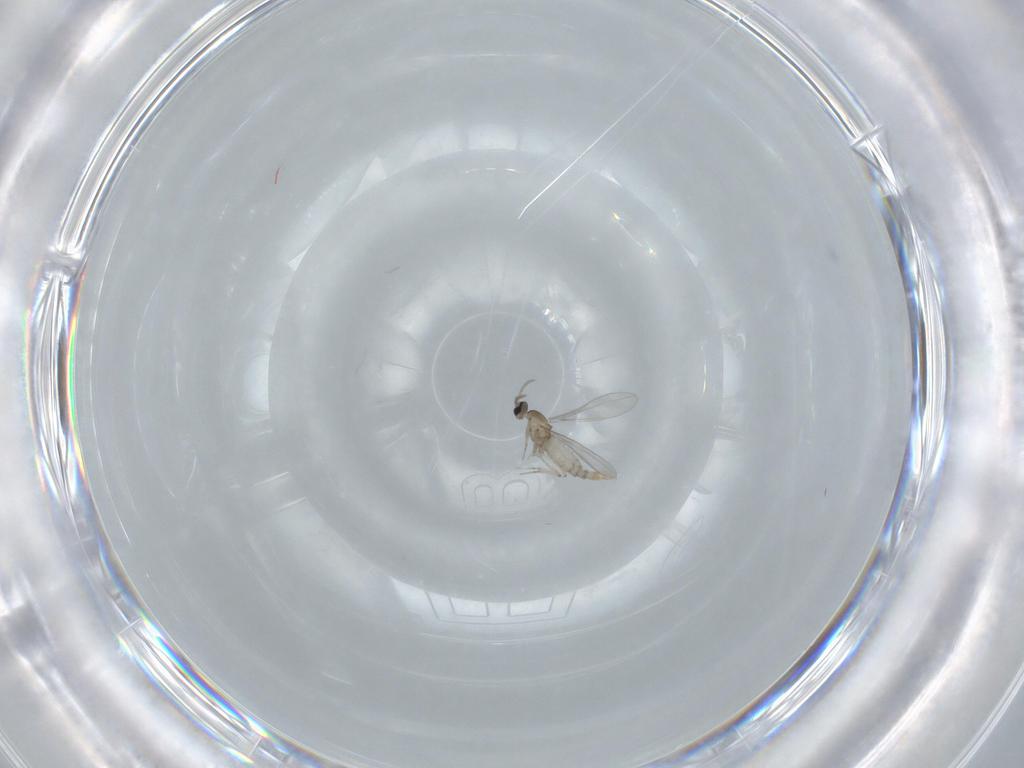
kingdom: Animalia
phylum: Arthropoda
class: Insecta
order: Diptera
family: Cecidomyiidae
